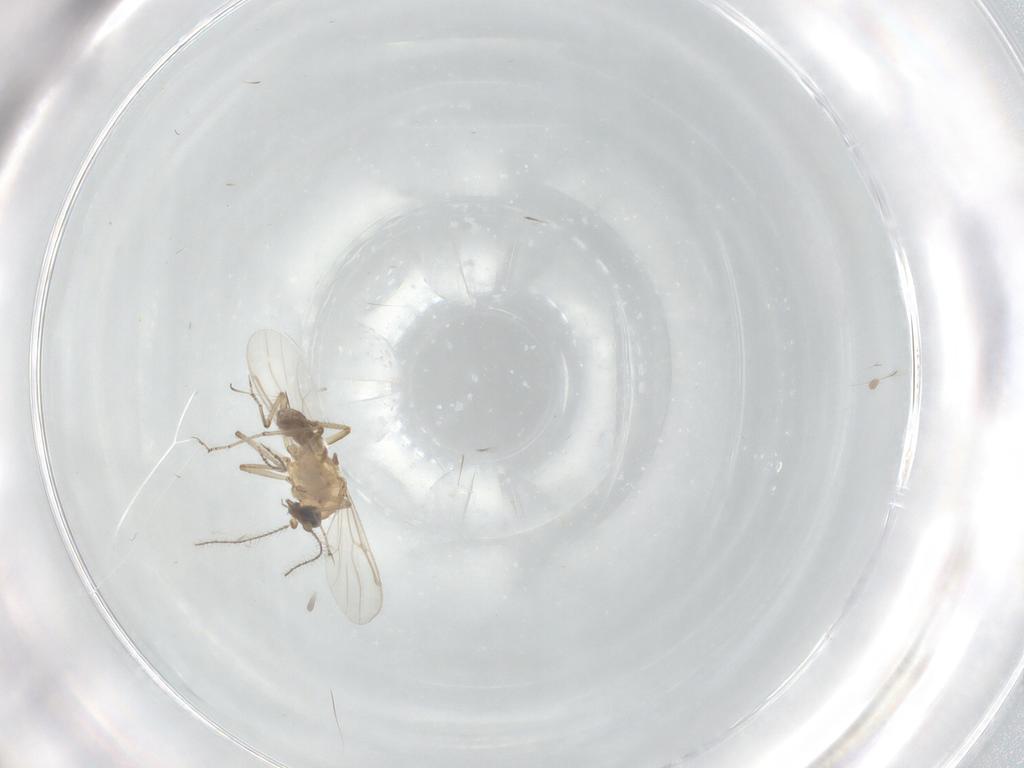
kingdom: Animalia
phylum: Arthropoda
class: Insecta
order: Diptera
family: Ceratopogonidae
